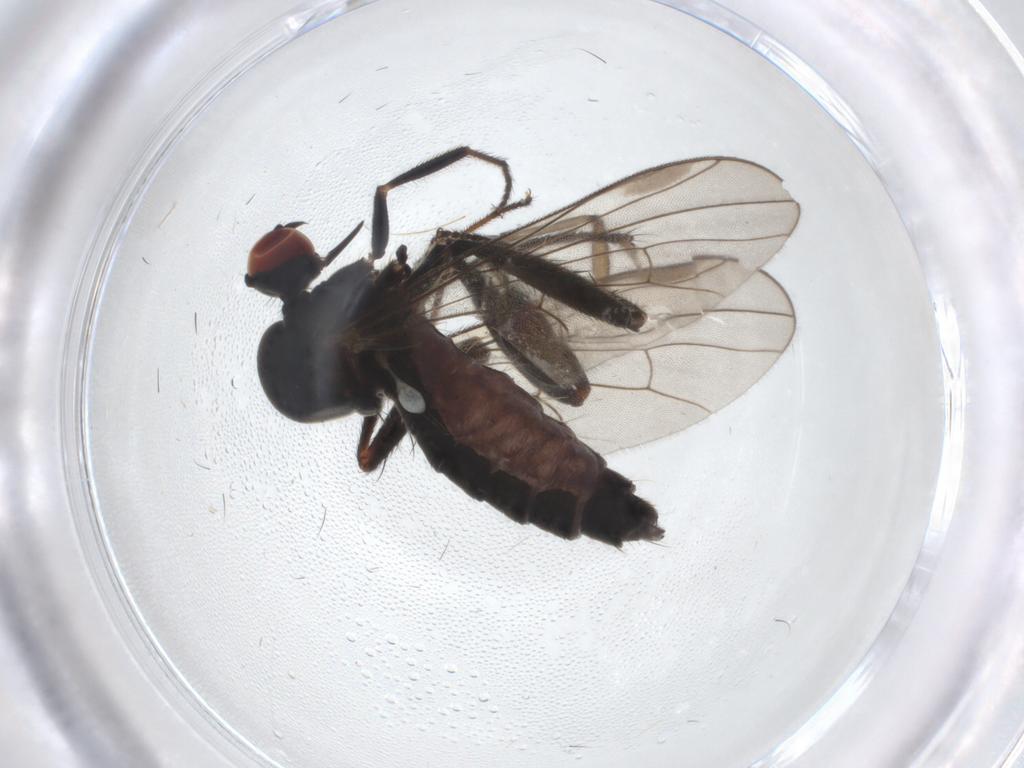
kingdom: Animalia
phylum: Arthropoda
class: Insecta
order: Diptera
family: Hybotidae
